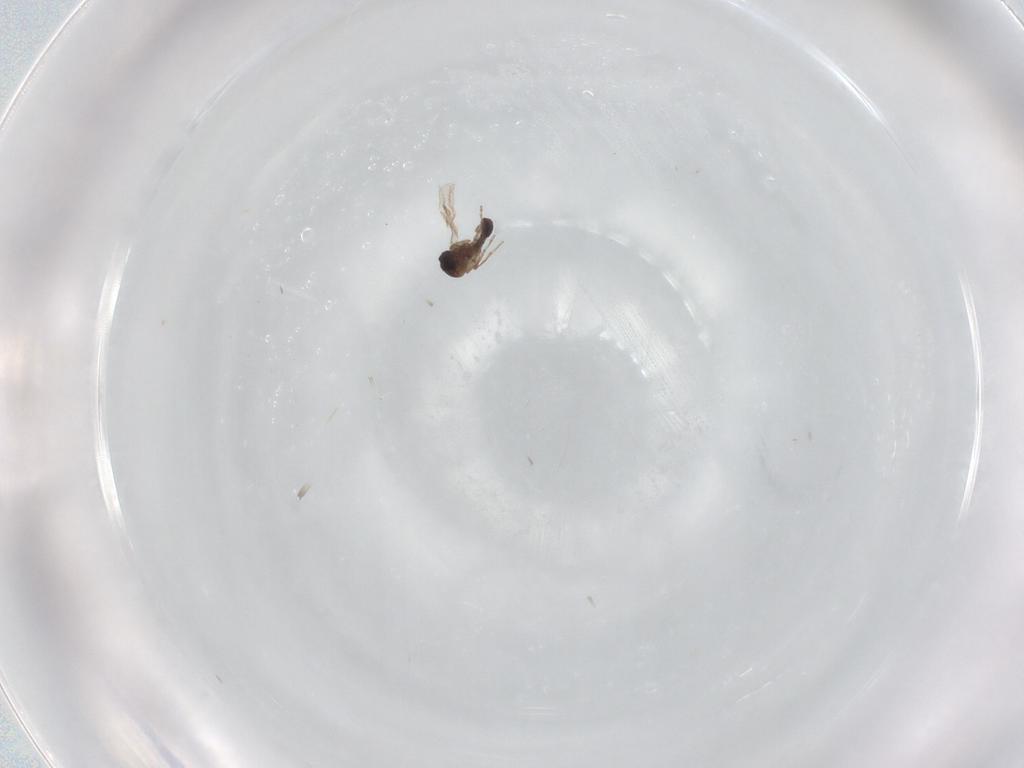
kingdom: Animalia
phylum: Arthropoda
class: Insecta
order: Diptera
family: Ceratopogonidae
